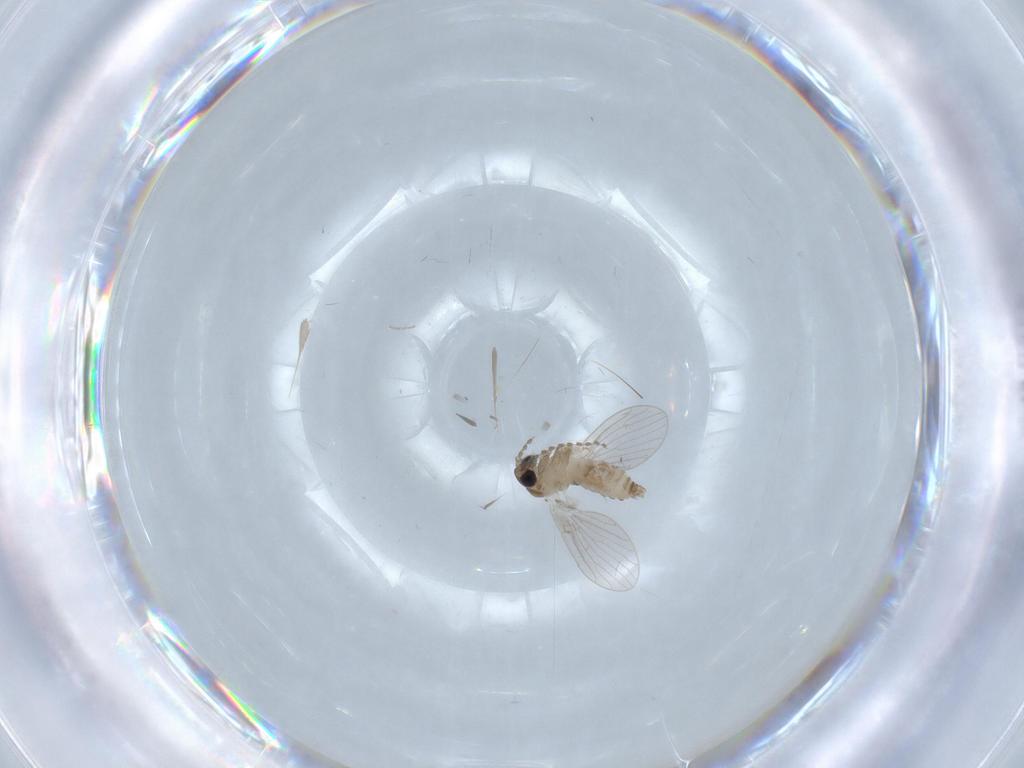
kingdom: Animalia
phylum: Arthropoda
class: Insecta
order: Diptera
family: Psychodidae
